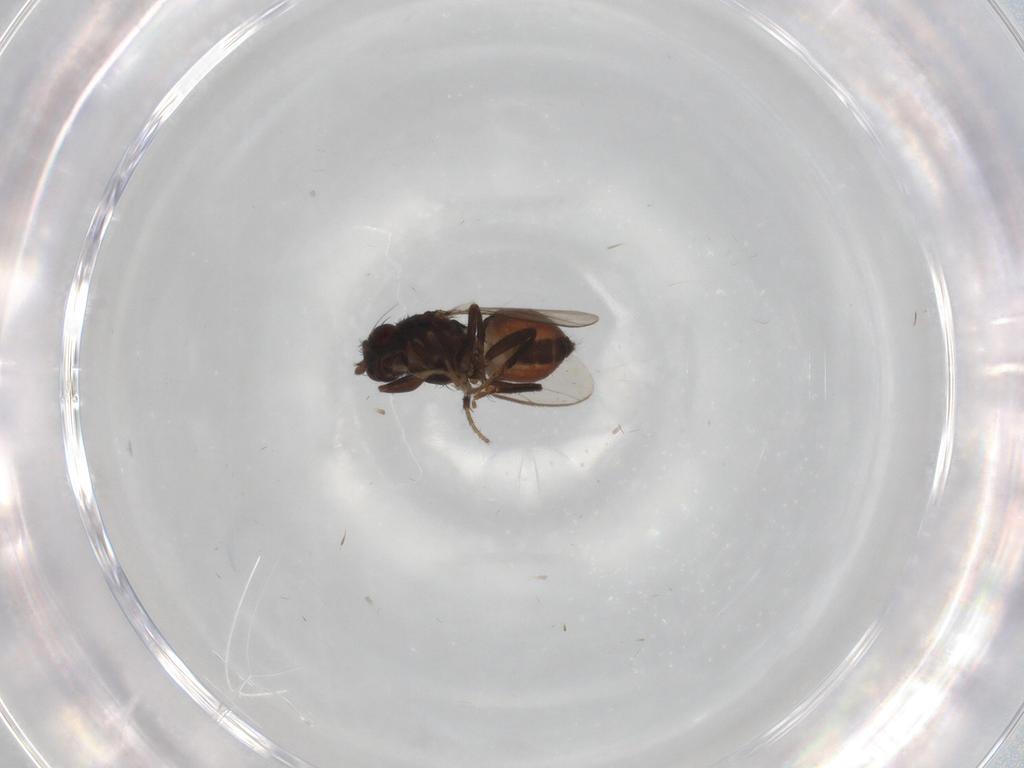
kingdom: Animalia
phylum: Arthropoda
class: Insecta
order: Diptera
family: Sphaeroceridae
